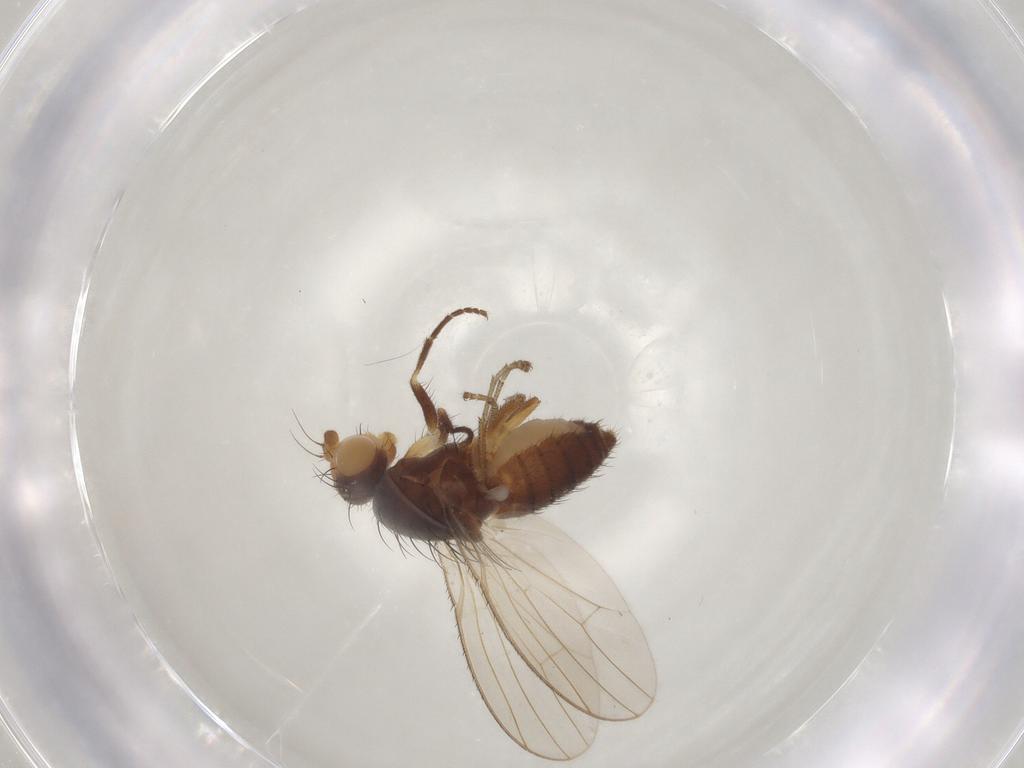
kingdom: Animalia
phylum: Arthropoda
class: Insecta
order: Diptera
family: Heleomyzidae
